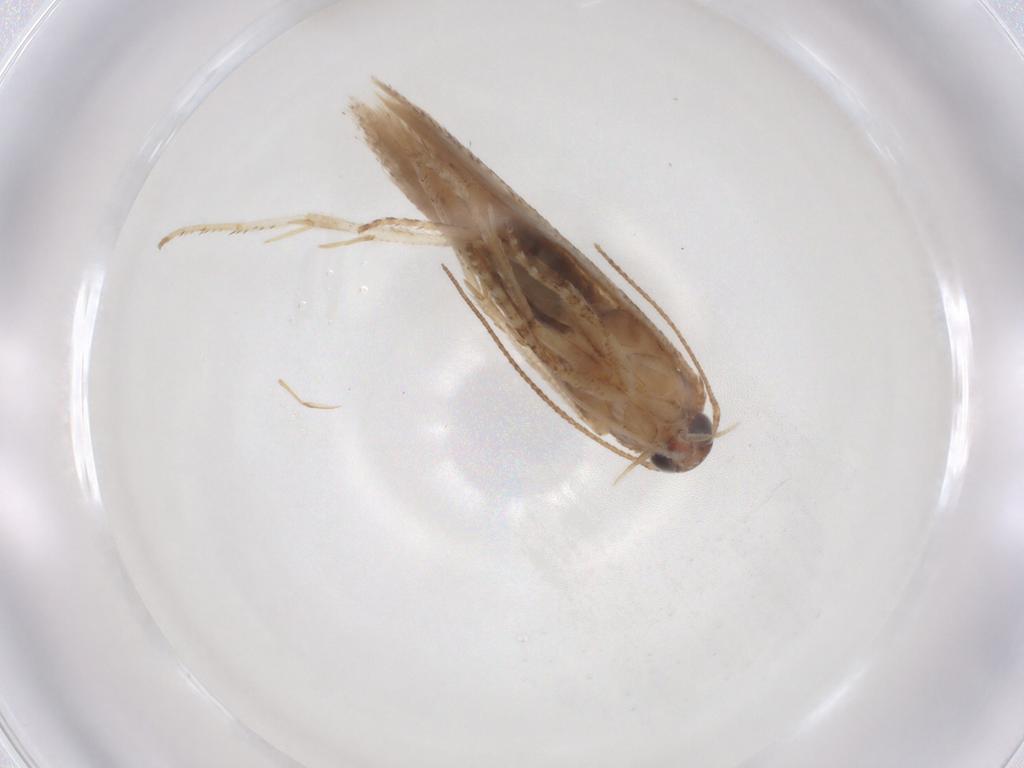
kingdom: Animalia
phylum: Arthropoda
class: Insecta
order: Lepidoptera
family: Gelechiidae
